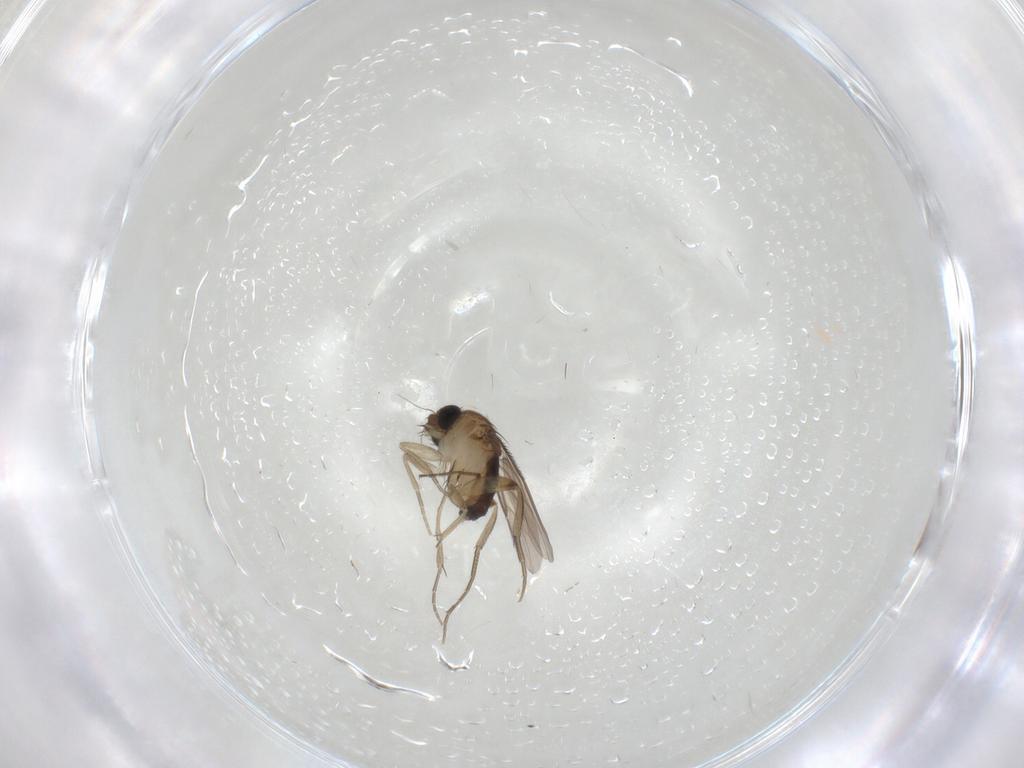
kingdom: Animalia
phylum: Arthropoda
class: Insecta
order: Diptera
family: Phoridae
